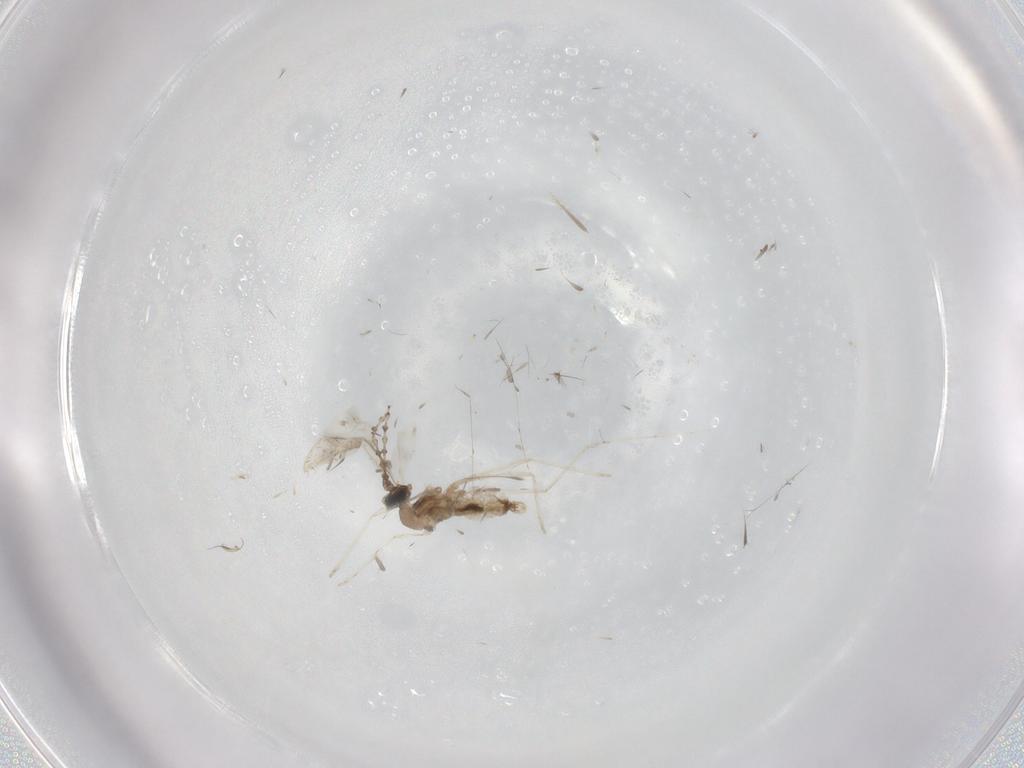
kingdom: Animalia
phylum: Arthropoda
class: Insecta
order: Diptera
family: Cecidomyiidae
